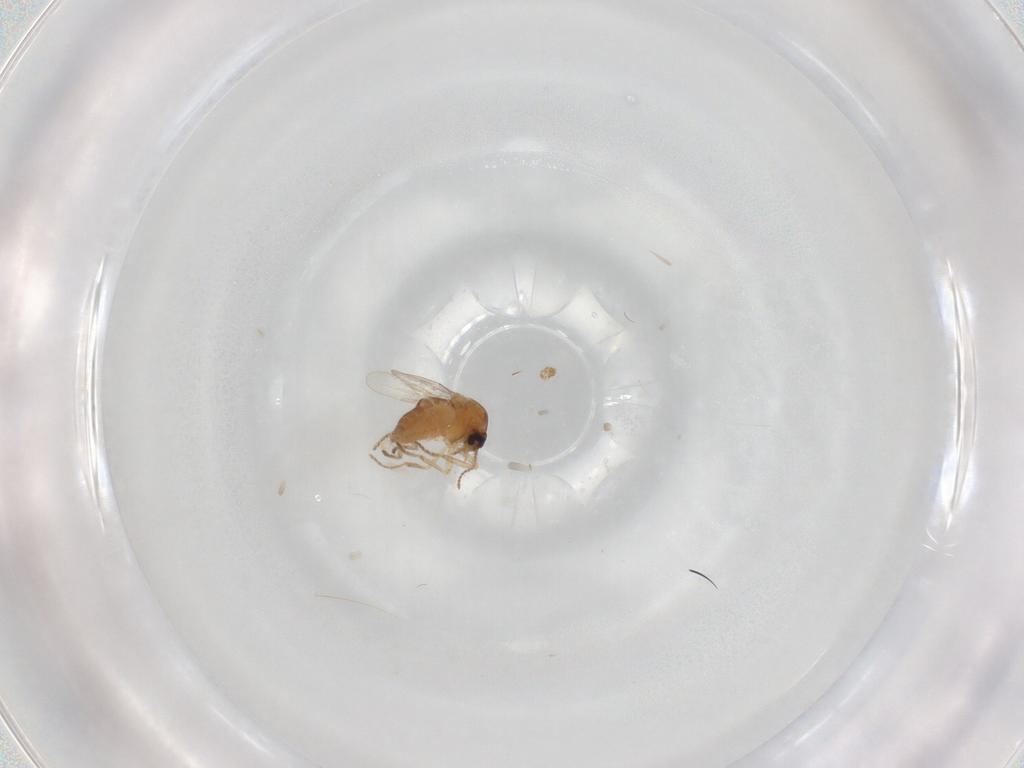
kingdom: Animalia
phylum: Arthropoda
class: Insecta
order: Diptera
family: Ceratopogonidae
